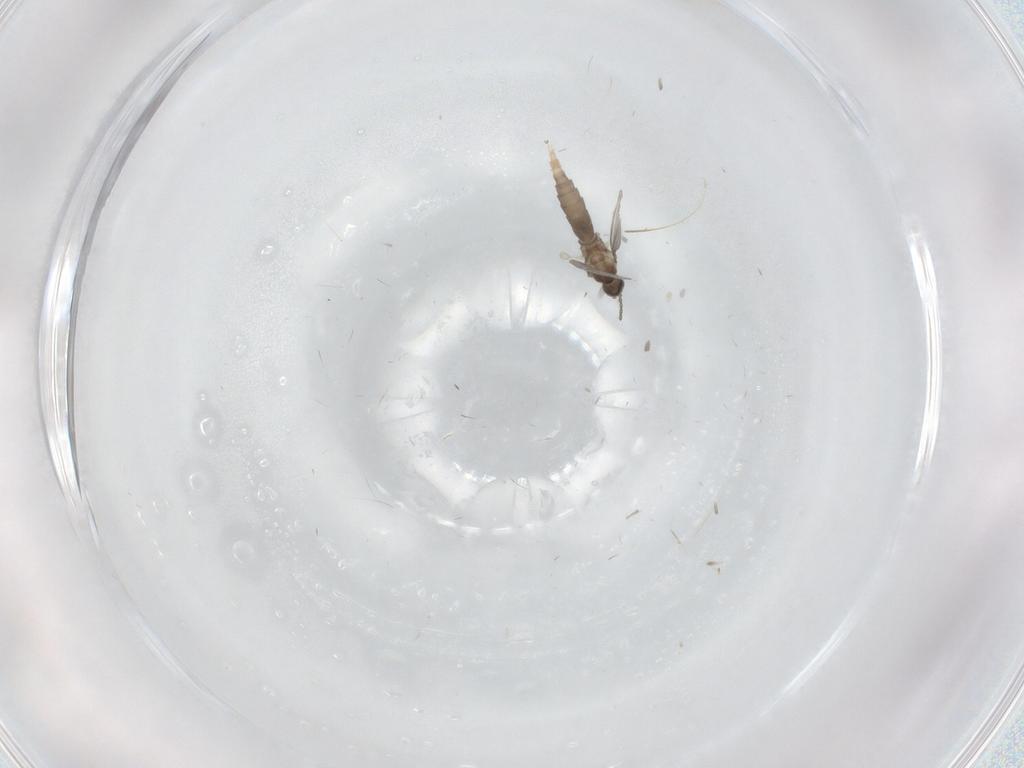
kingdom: Animalia
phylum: Arthropoda
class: Insecta
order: Diptera
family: Cecidomyiidae
